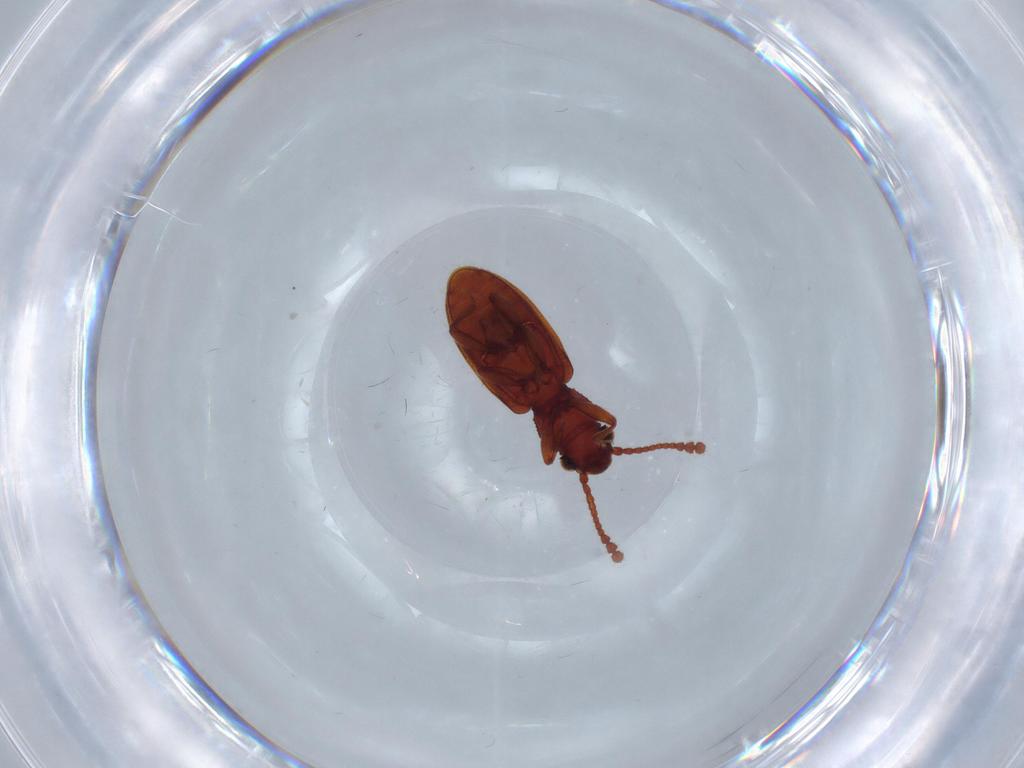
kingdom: Animalia
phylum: Arthropoda
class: Insecta
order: Coleoptera
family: Silvanidae
